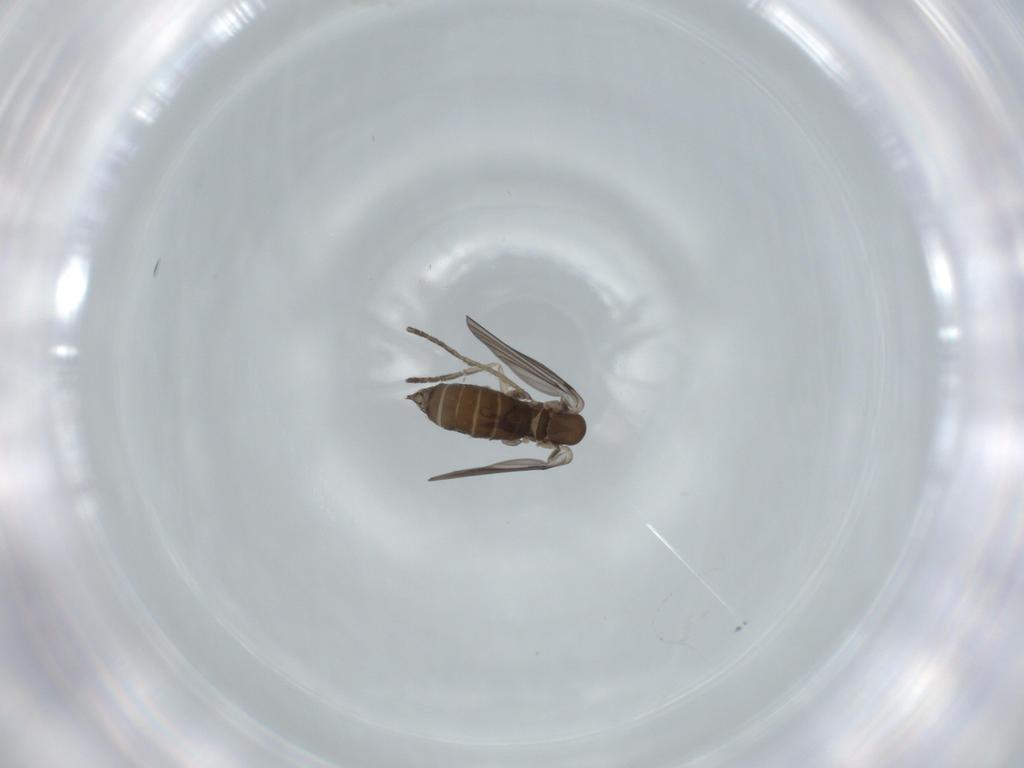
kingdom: Animalia
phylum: Arthropoda
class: Insecta
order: Diptera
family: Cecidomyiidae
